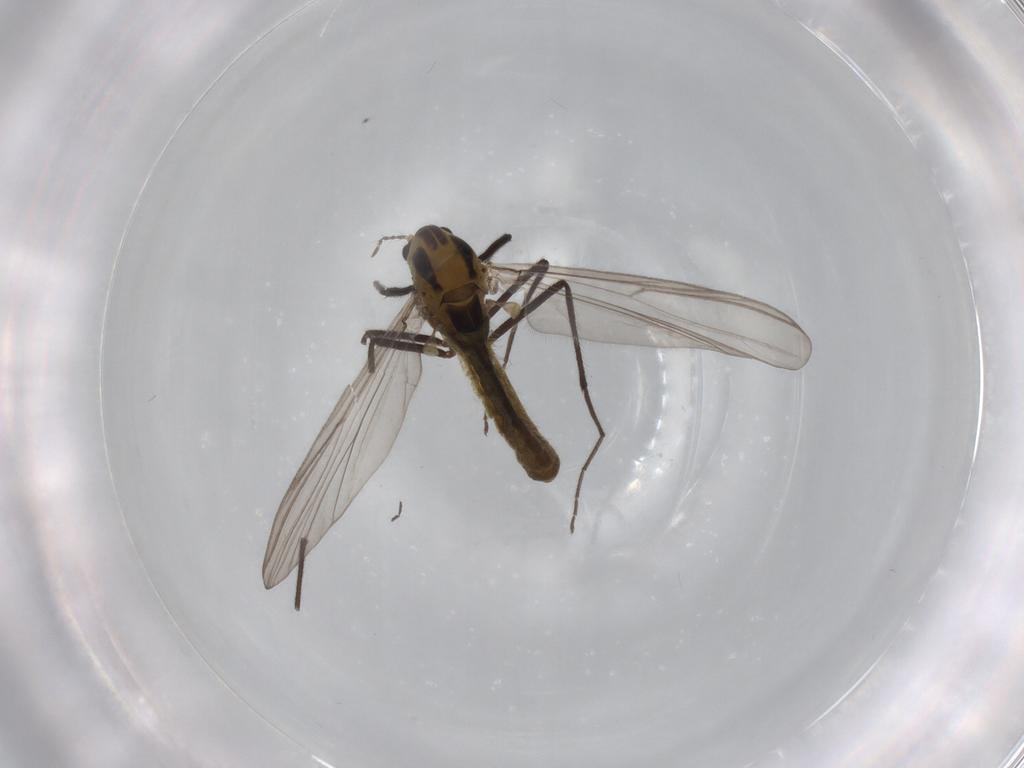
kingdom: Animalia
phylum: Arthropoda
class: Insecta
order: Diptera
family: Chironomidae
